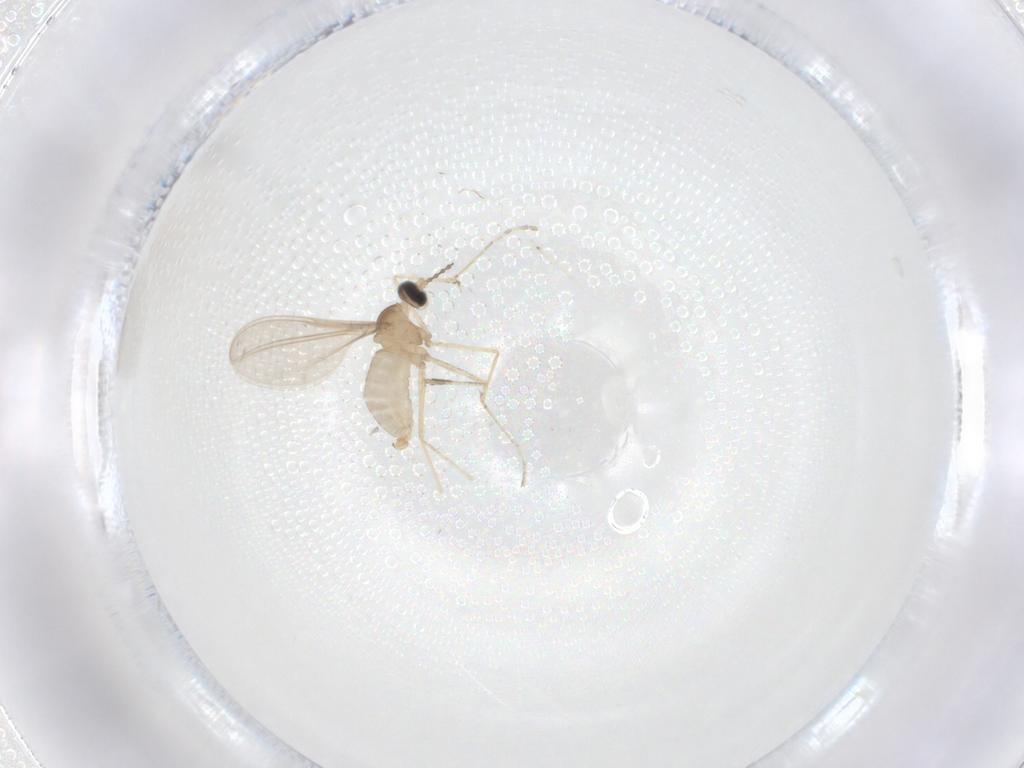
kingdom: Animalia
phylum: Arthropoda
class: Insecta
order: Diptera
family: Cecidomyiidae
